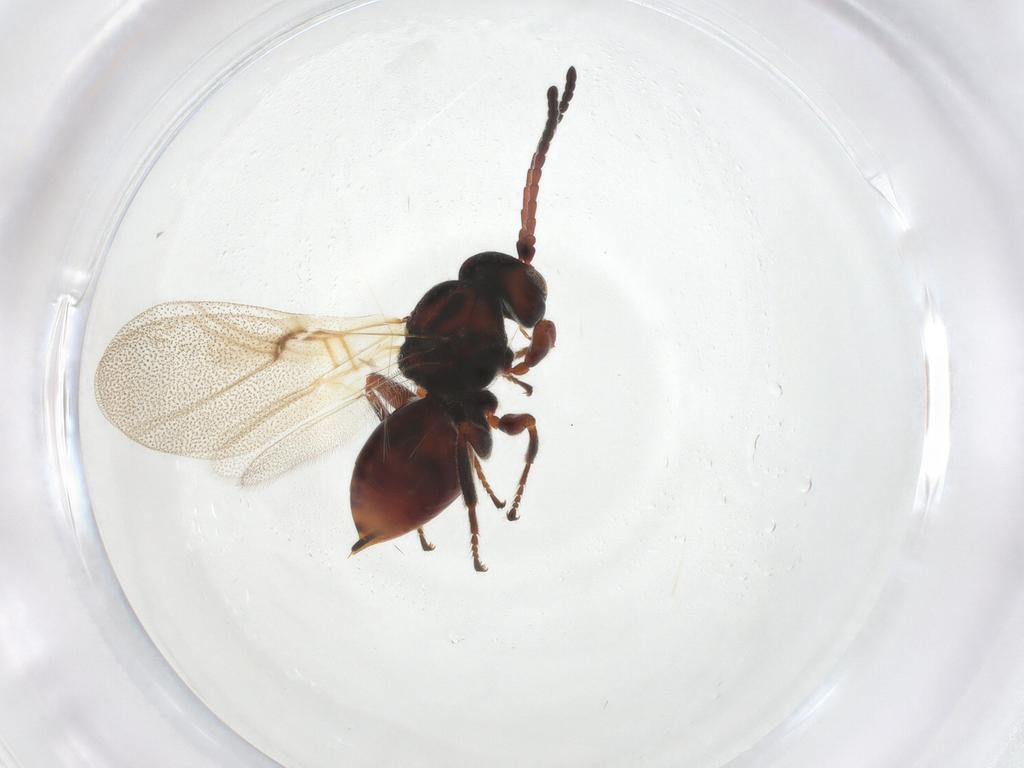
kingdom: Animalia
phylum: Arthropoda
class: Insecta
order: Hymenoptera
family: Cynipidae
